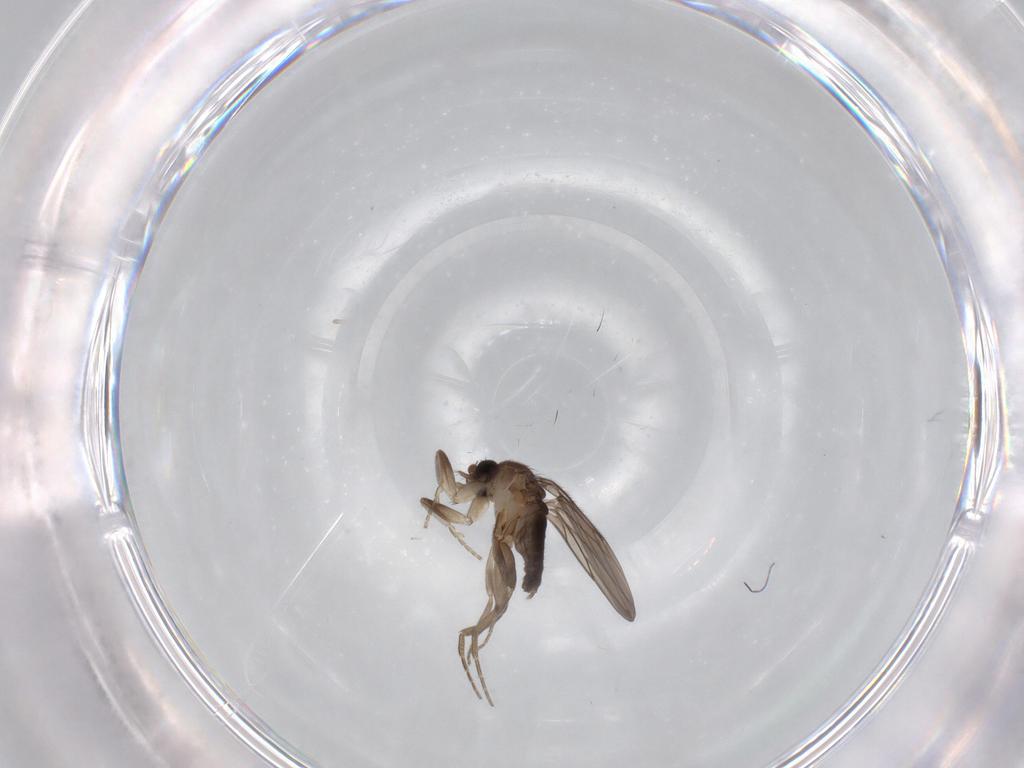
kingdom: Animalia
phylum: Arthropoda
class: Insecta
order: Diptera
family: Phoridae
